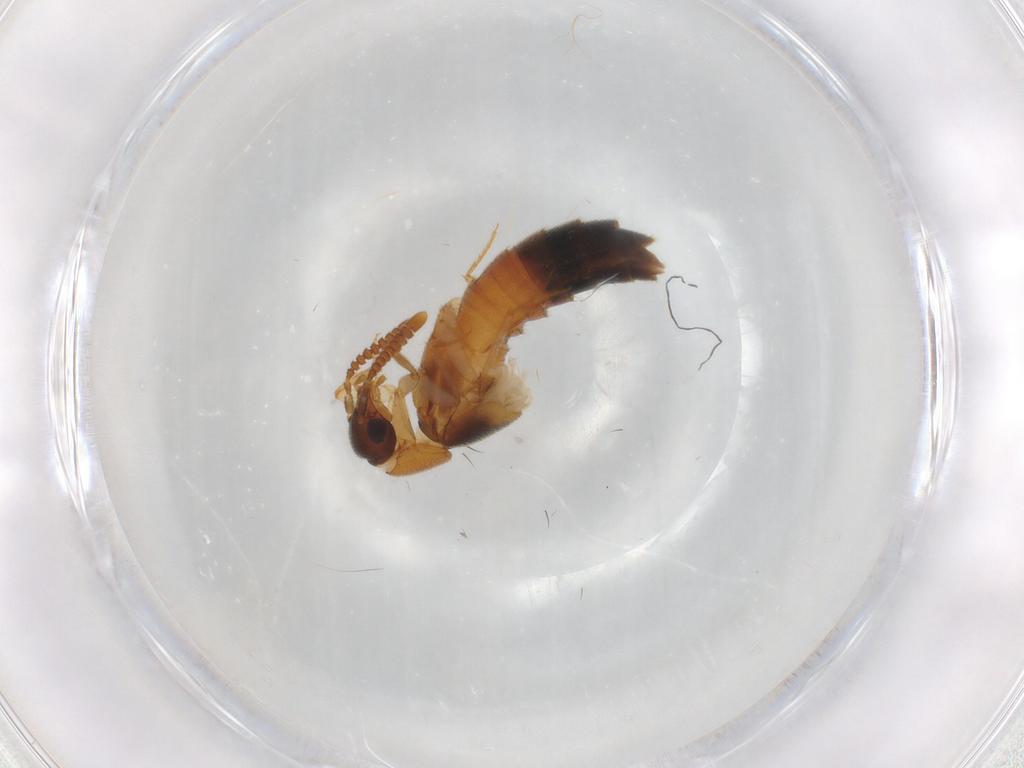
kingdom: Animalia
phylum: Arthropoda
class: Insecta
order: Coleoptera
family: Staphylinidae
